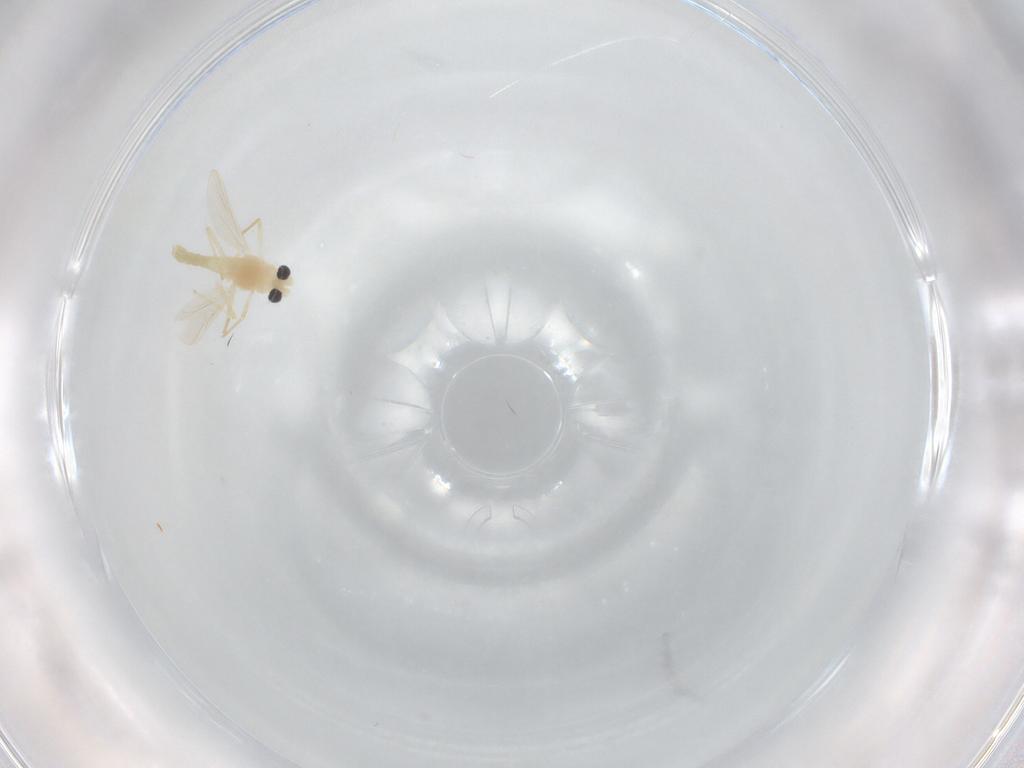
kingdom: Animalia
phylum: Arthropoda
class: Insecta
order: Diptera
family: Chironomidae
